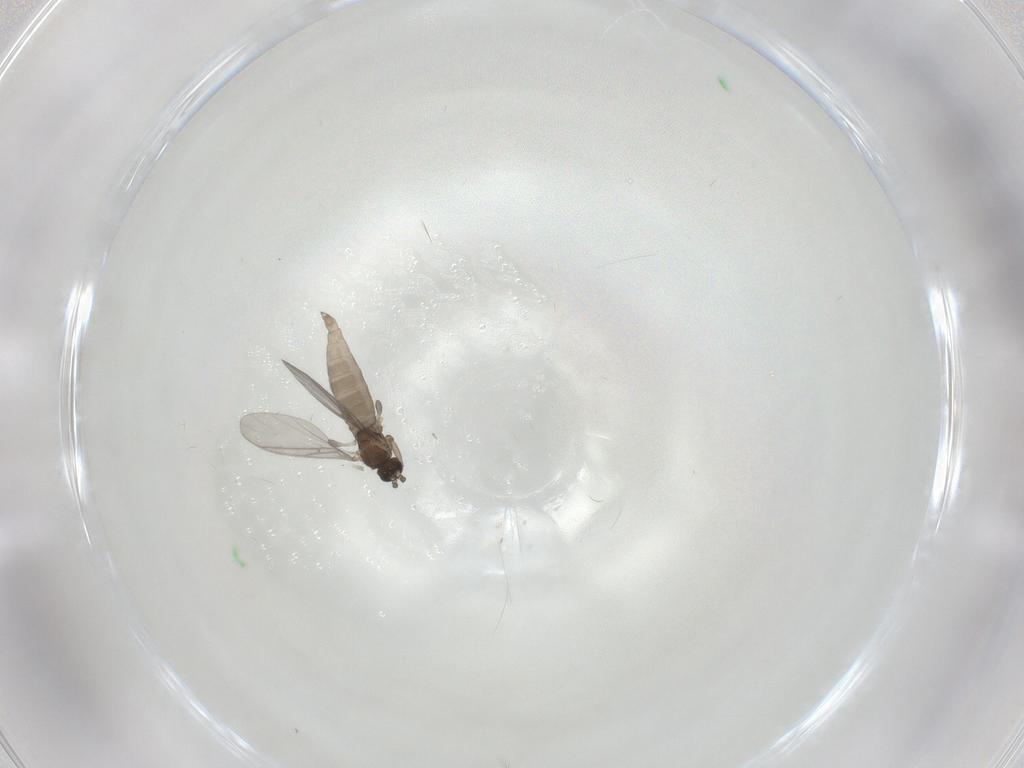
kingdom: Animalia
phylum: Arthropoda
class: Insecta
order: Diptera
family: Sciaridae
